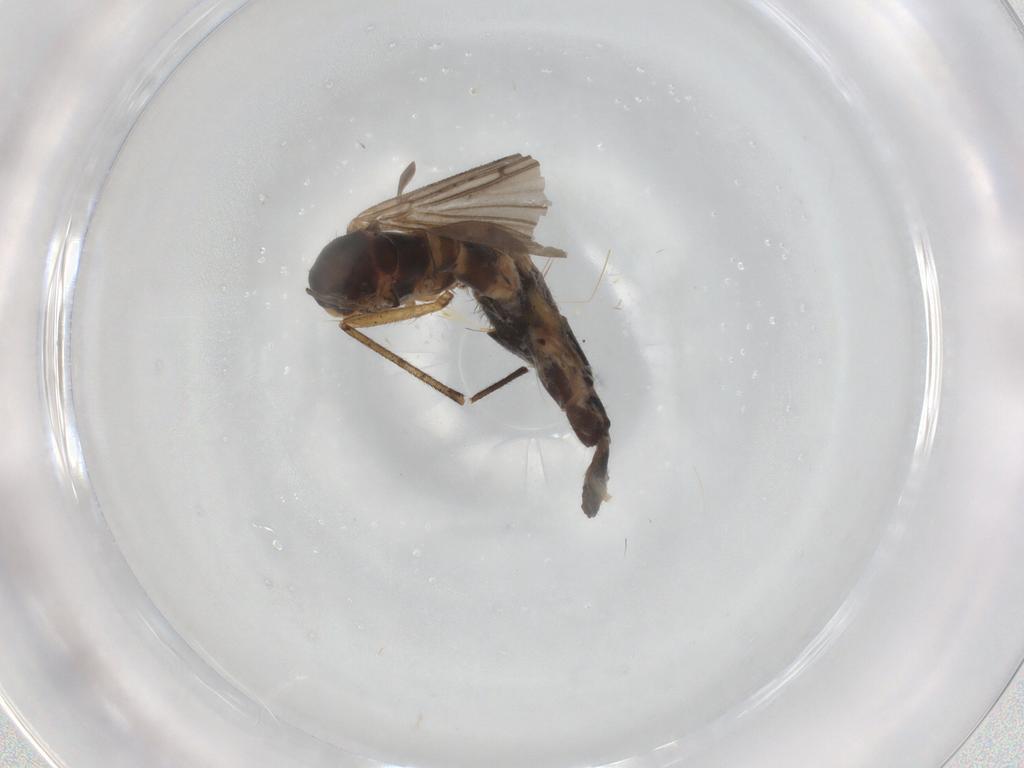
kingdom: Animalia
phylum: Arthropoda
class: Insecta
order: Diptera
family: Sciaridae
